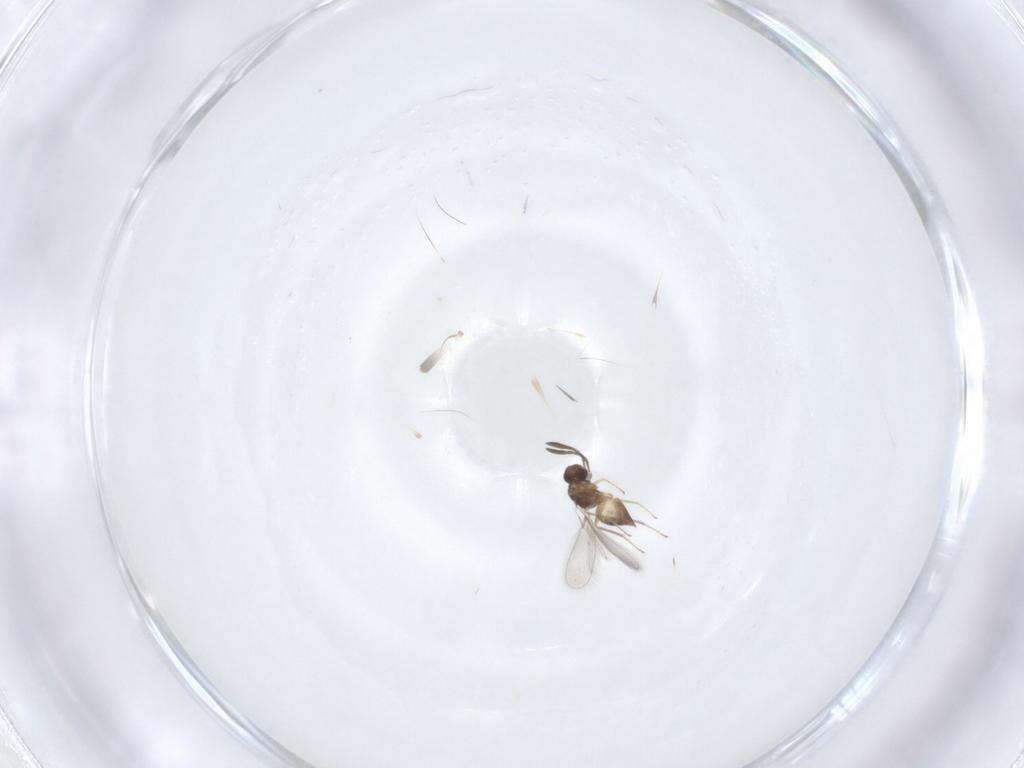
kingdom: Animalia
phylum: Arthropoda
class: Insecta
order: Hymenoptera
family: Mymaridae
